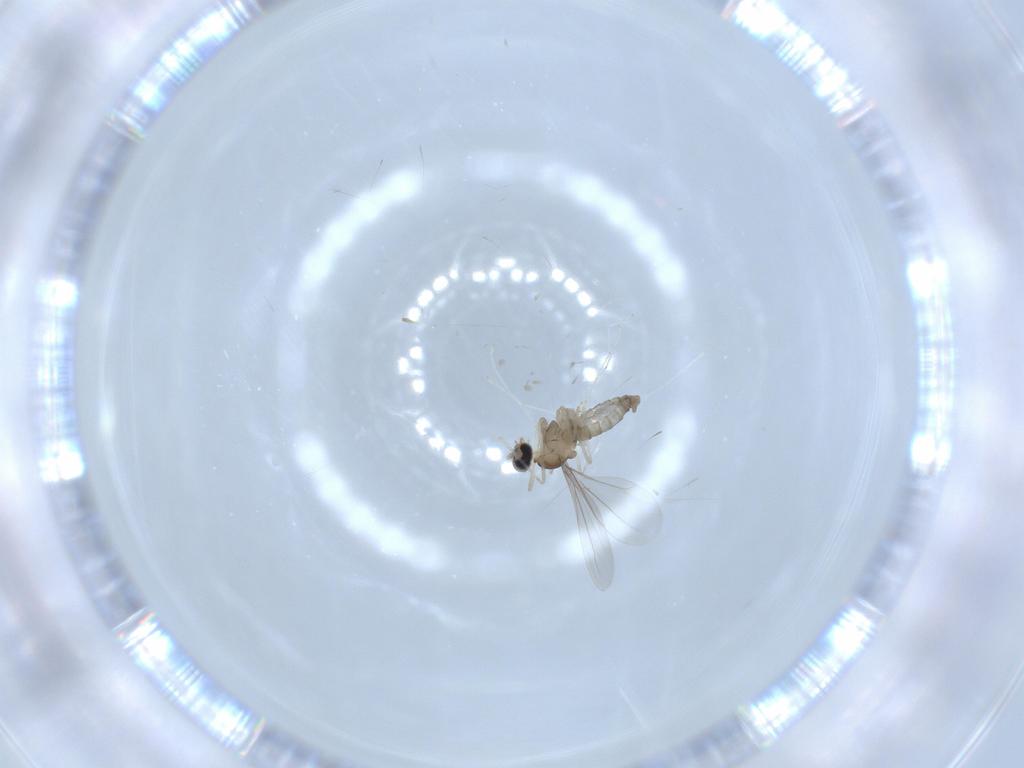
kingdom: Animalia
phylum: Arthropoda
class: Insecta
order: Diptera
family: Cecidomyiidae
